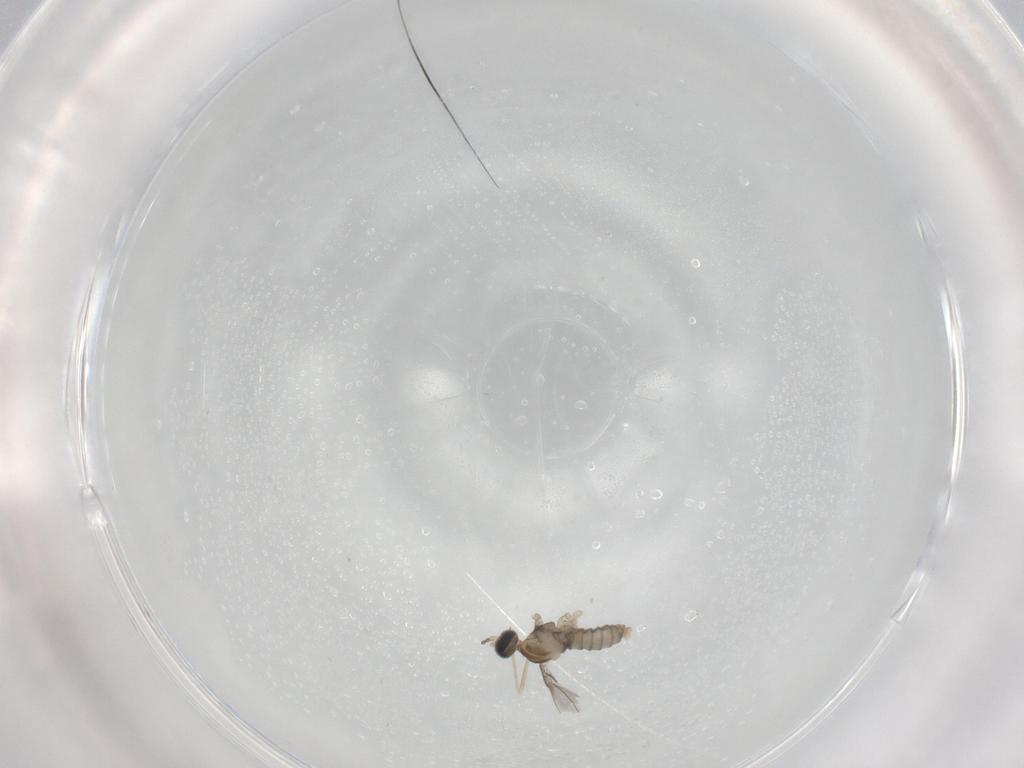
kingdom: Animalia
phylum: Arthropoda
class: Insecta
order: Diptera
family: Cecidomyiidae
